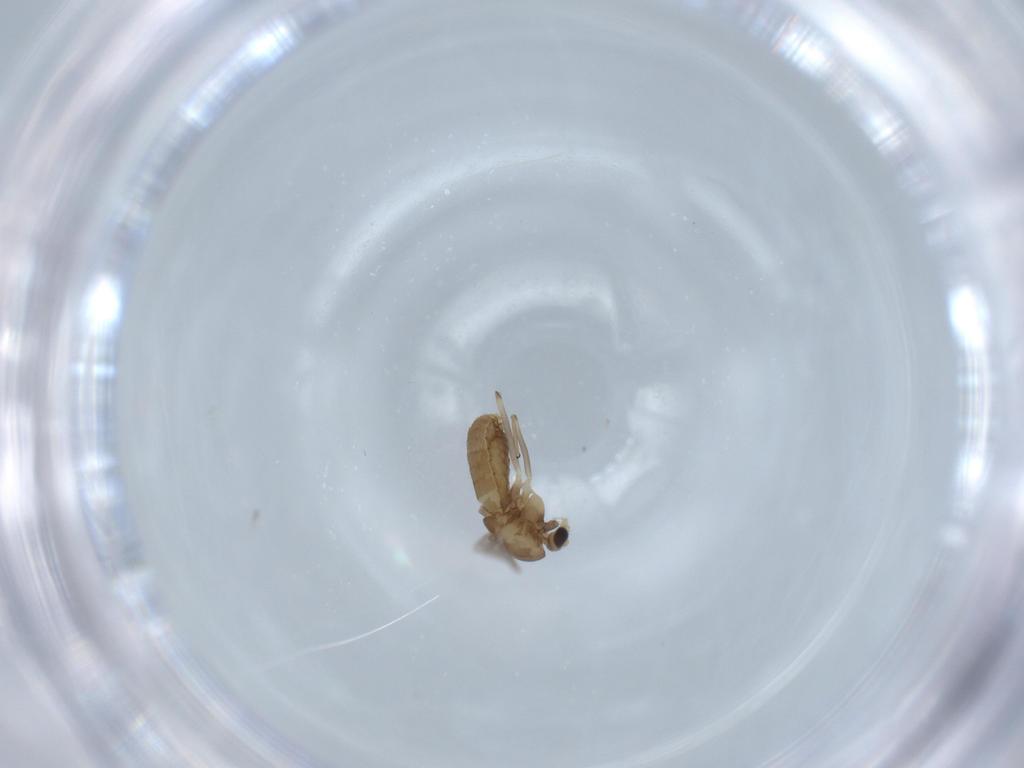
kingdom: Animalia
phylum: Arthropoda
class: Insecta
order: Diptera
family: Chironomidae
